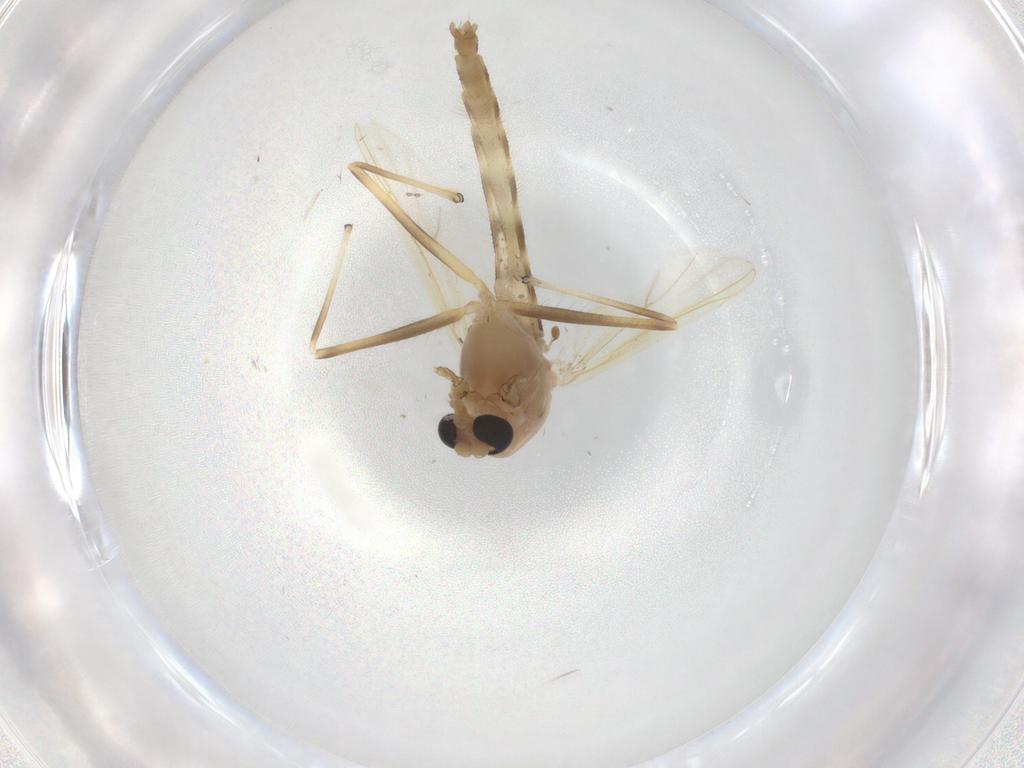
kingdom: Animalia
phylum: Arthropoda
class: Insecta
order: Diptera
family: Chironomidae
